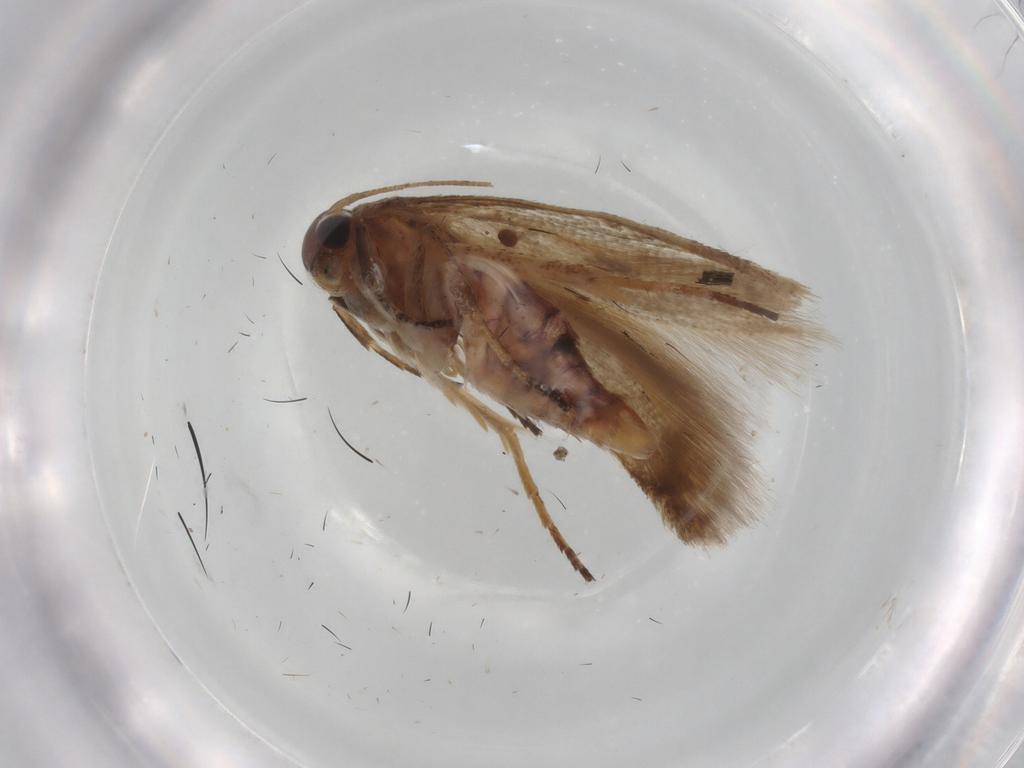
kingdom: Animalia
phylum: Arthropoda
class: Insecta
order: Lepidoptera
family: Scythrididae
